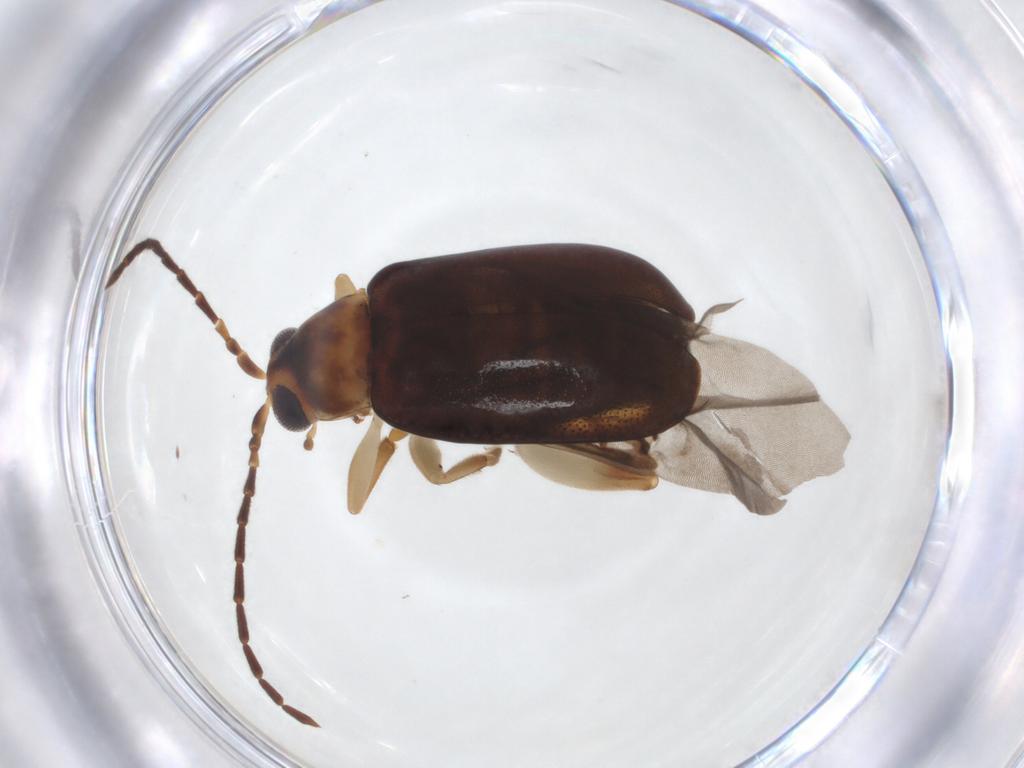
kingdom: Animalia
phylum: Arthropoda
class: Insecta
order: Coleoptera
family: Chrysomelidae
